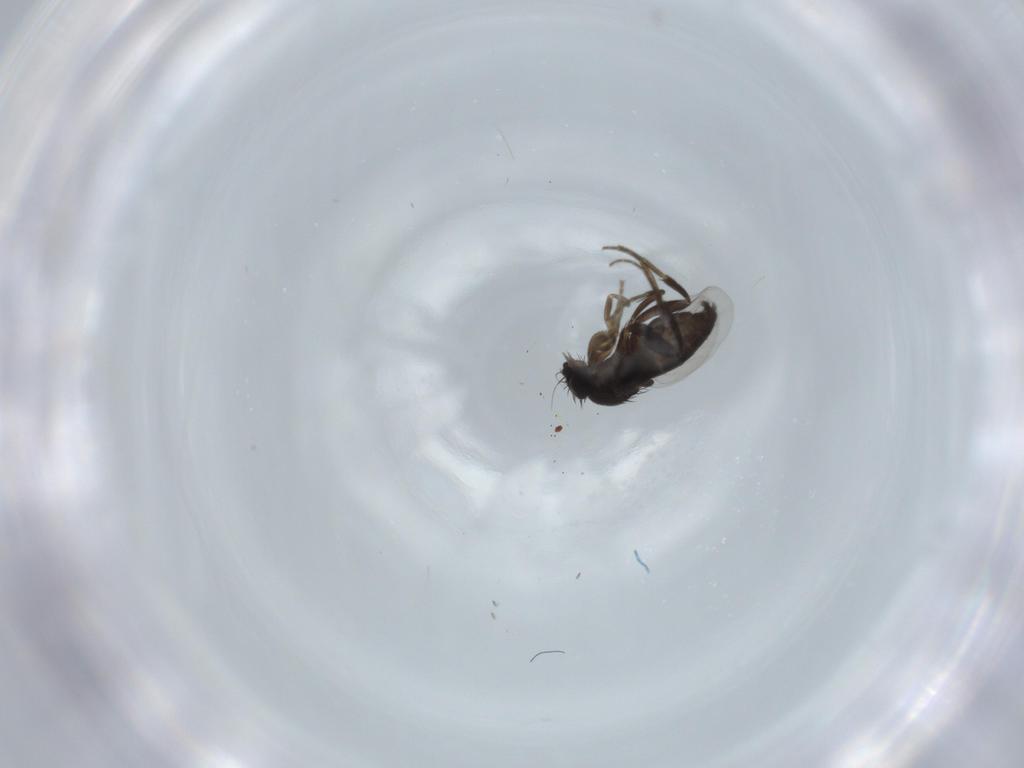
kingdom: Animalia
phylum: Arthropoda
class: Insecta
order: Diptera
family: Phoridae
